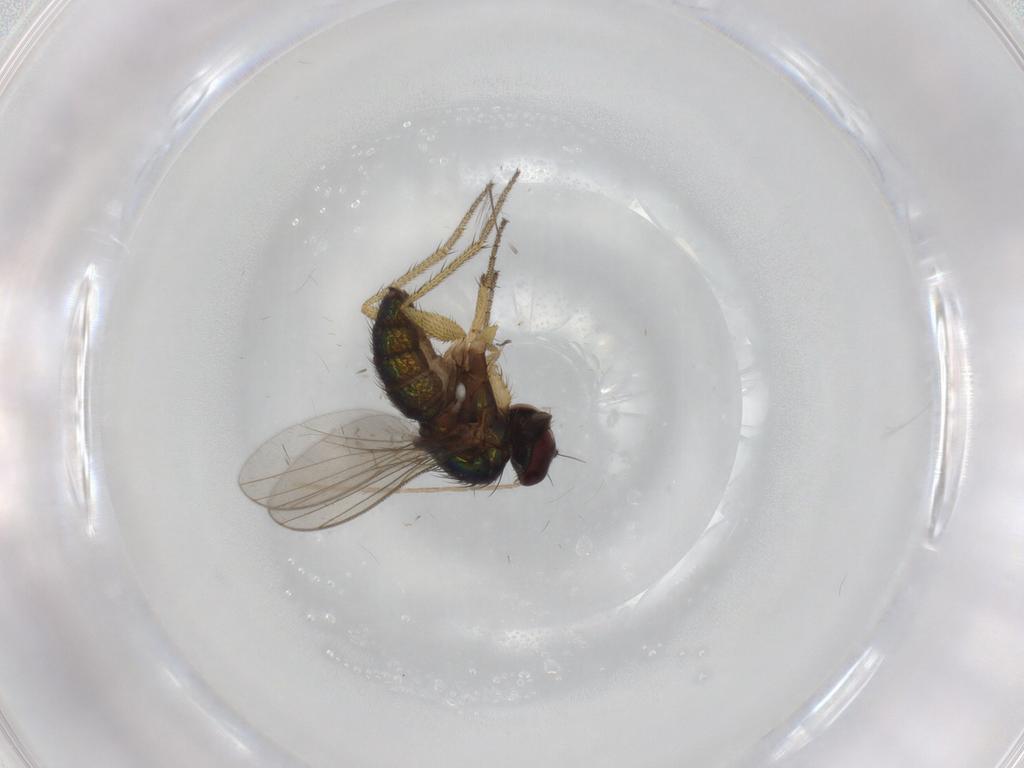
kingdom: Animalia
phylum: Arthropoda
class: Insecta
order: Diptera
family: Dolichopodidae
